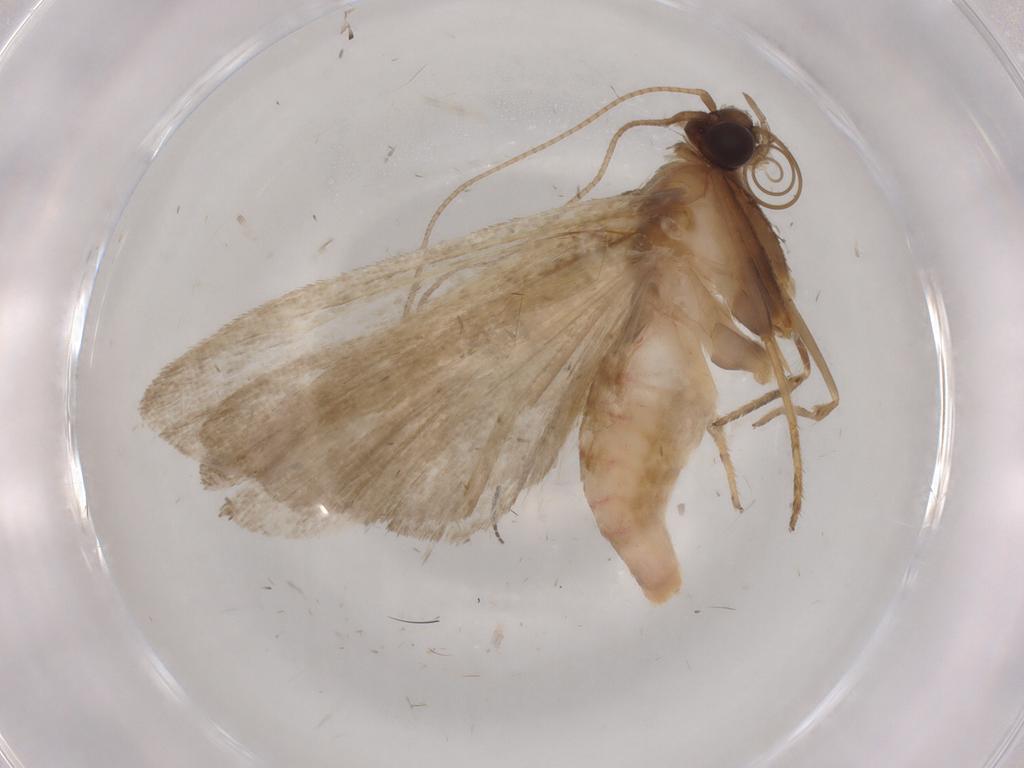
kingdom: Animalia
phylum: Arthropoda
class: Insecta
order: Lepidoptera
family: Noctuidae
